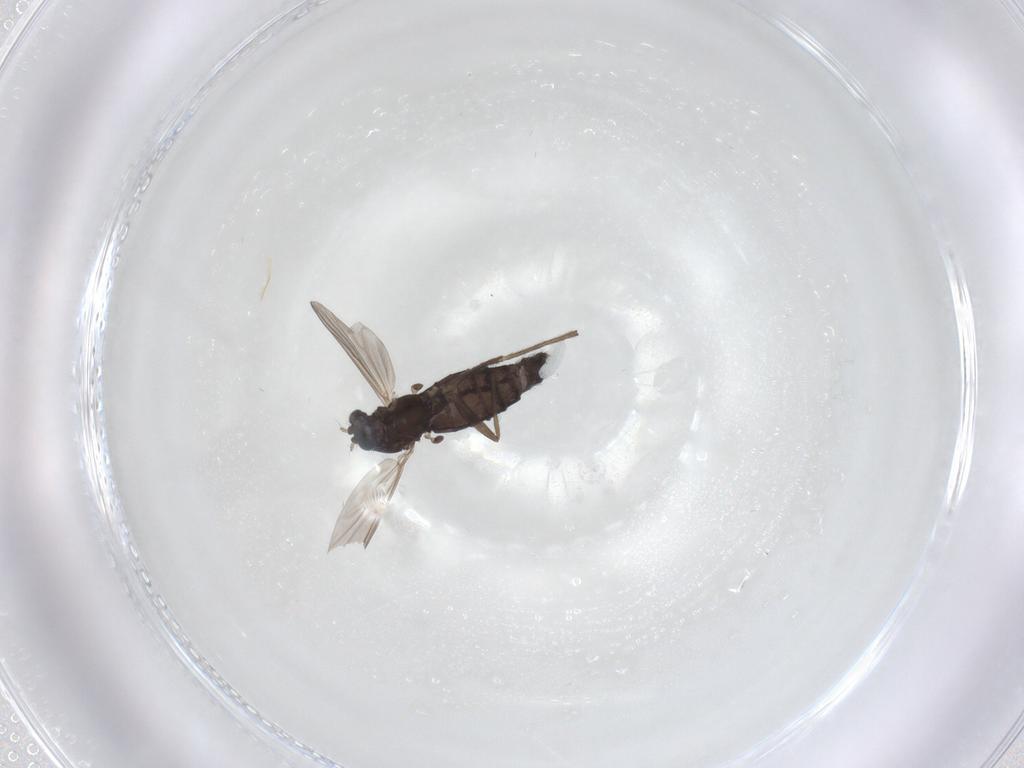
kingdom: Animalia
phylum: Arthropoda
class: Insecta
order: Diptera
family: Chironomidae
